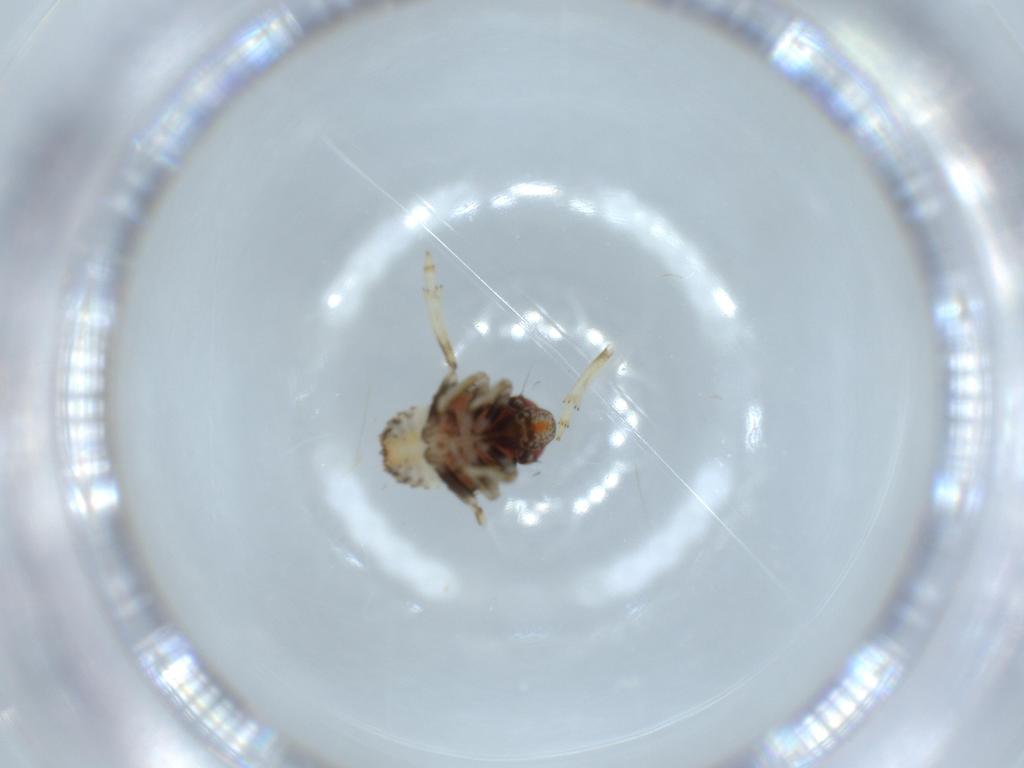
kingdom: Animalia
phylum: Arthropoda
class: Insecta
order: Hemiptera
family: Issidae
